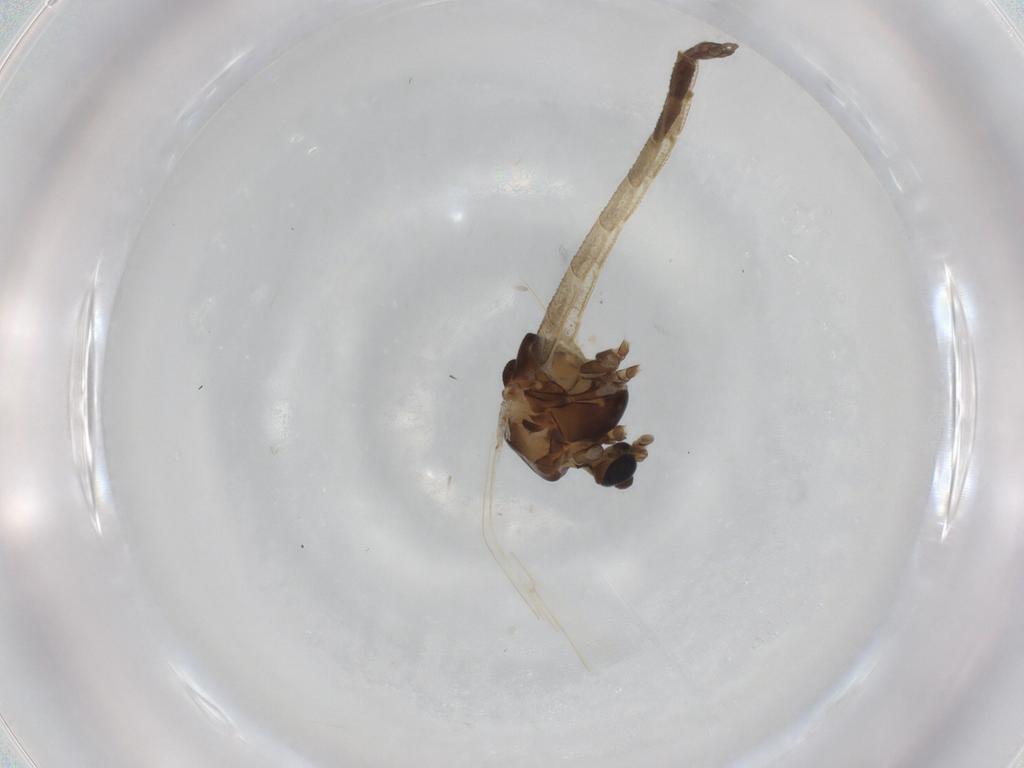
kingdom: Animalia
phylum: Arthropoda
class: Insecta
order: Diptera
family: Chironomidae
